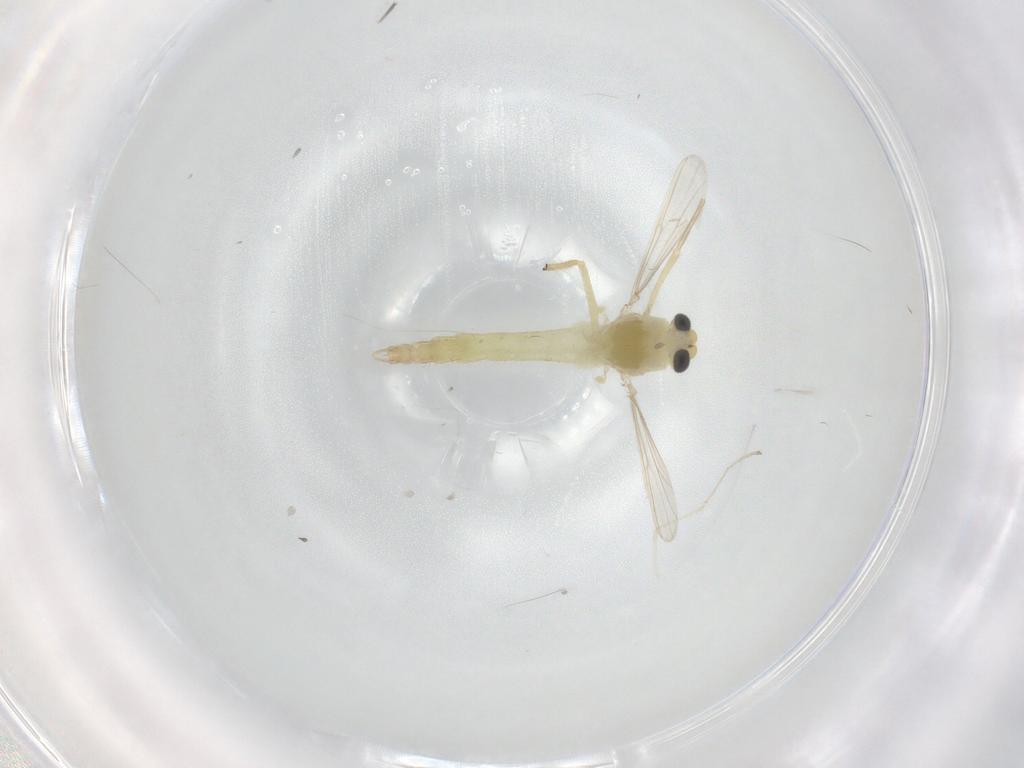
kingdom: Animalia
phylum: Arthropoda
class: Insecta
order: Diptera
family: Chironomidae
